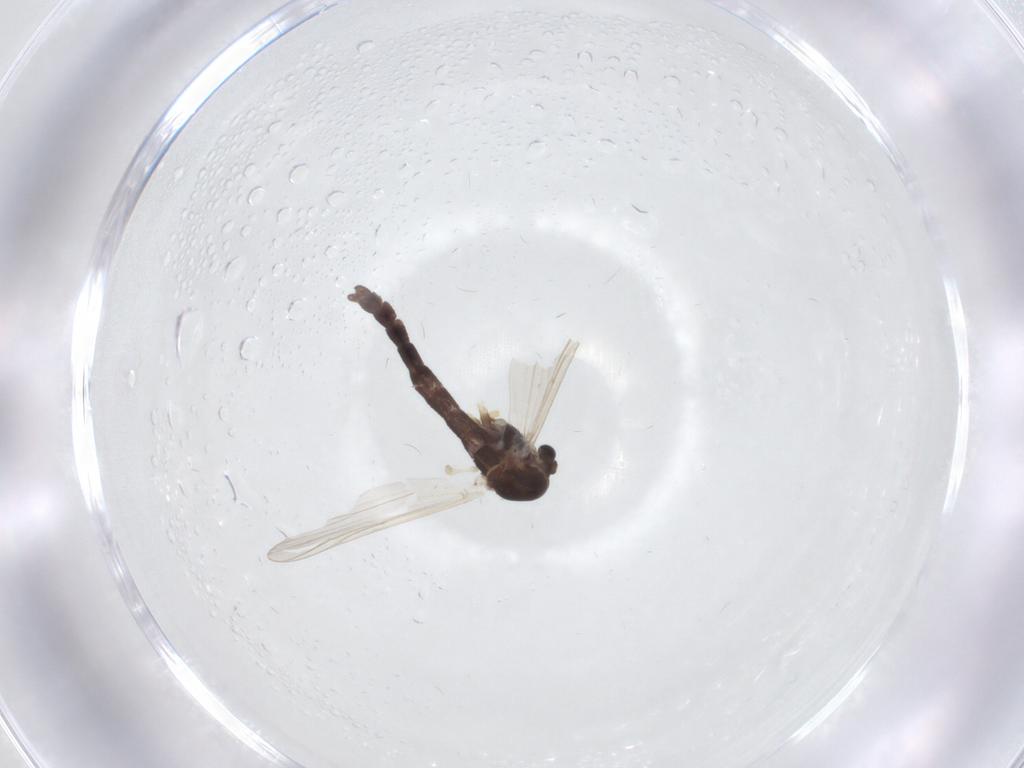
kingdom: Animalia
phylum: Arthropoda
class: Insecta
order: Diptera
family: Chironomidae
